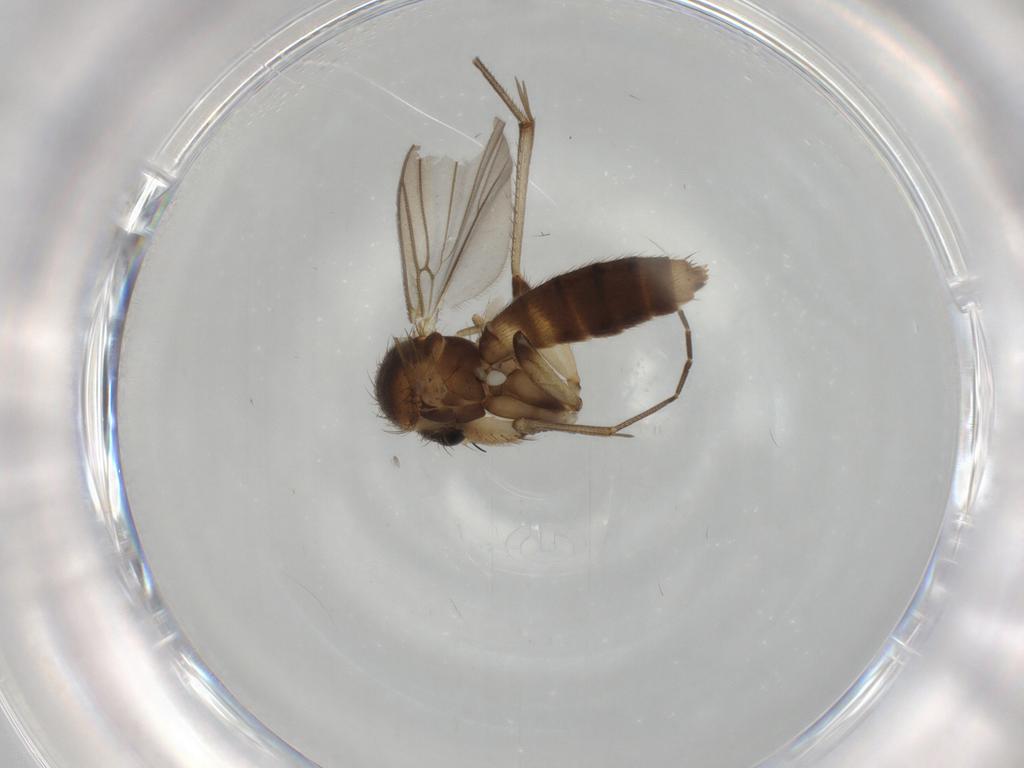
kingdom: Animalia
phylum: Arthropoda
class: Insecta
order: Diptera
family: Mycetophilidae
